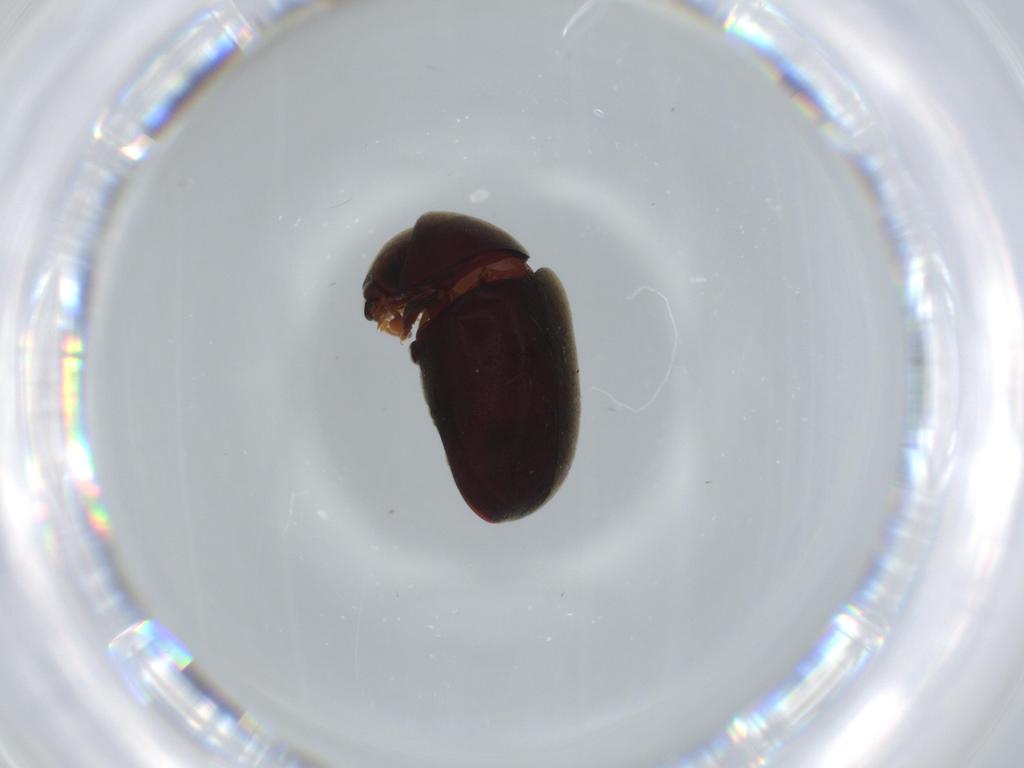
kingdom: Animalia
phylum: Arthropoda
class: Insecta
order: Coleoptera
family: Ptinidae
